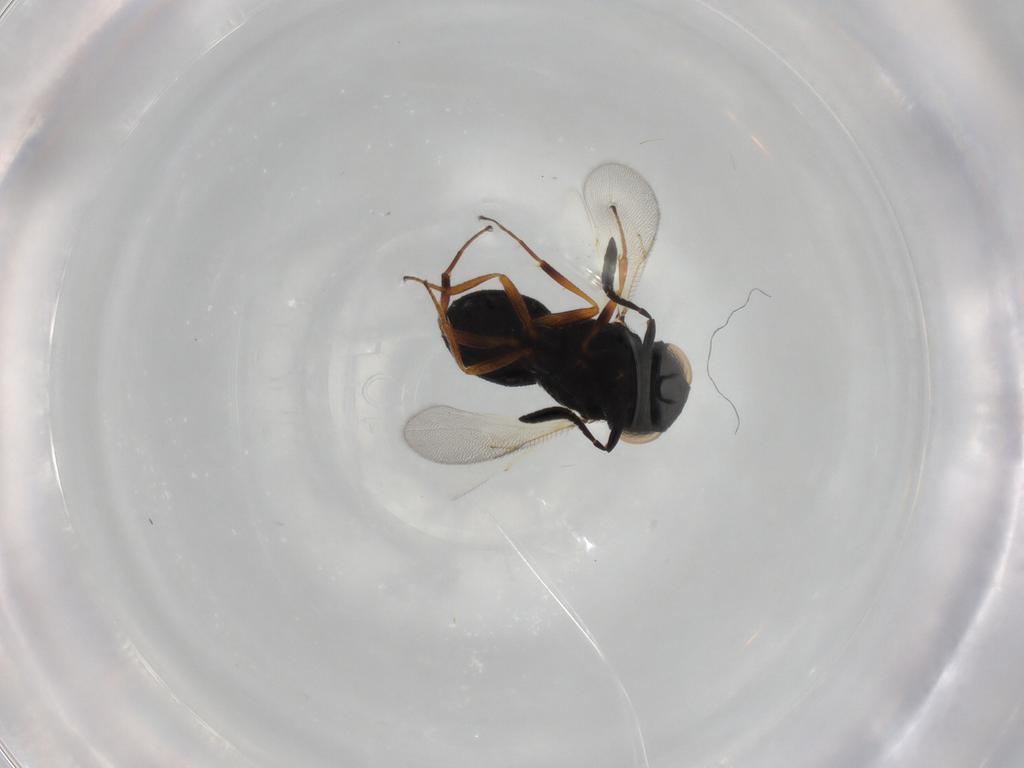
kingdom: Animalia
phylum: Arthropoda
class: Insecta
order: Hymenoptera
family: Scelionidae
